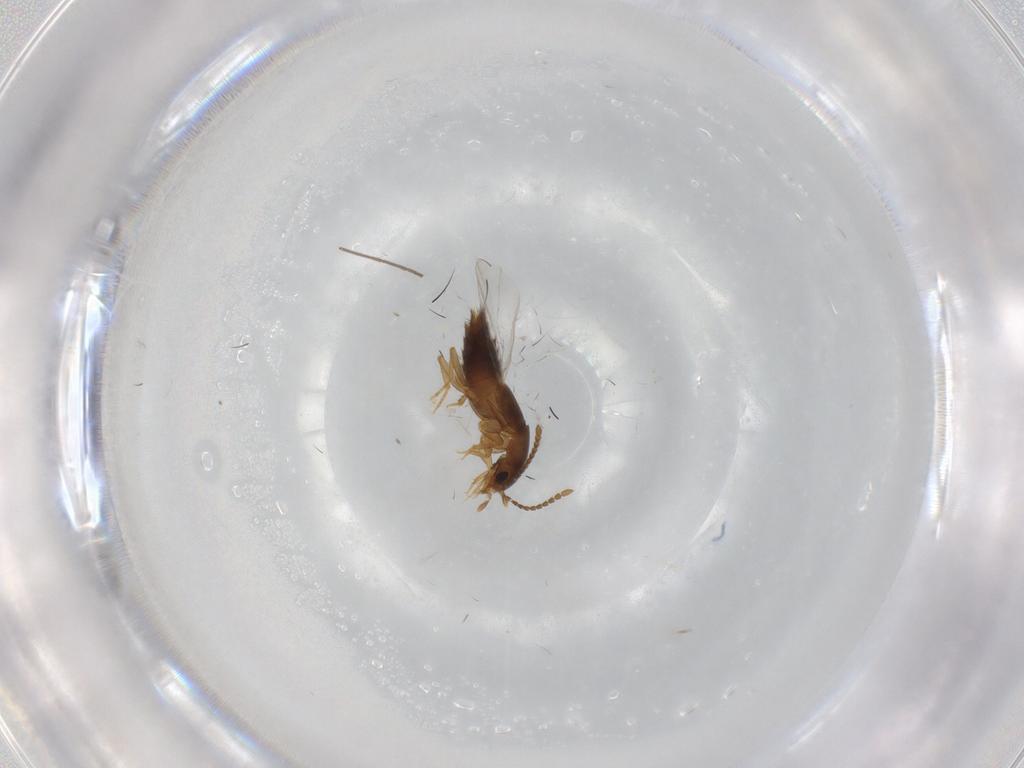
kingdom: Animalia
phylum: Arthropoda
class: Insecta
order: Coleoptera
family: Staphylinidae
